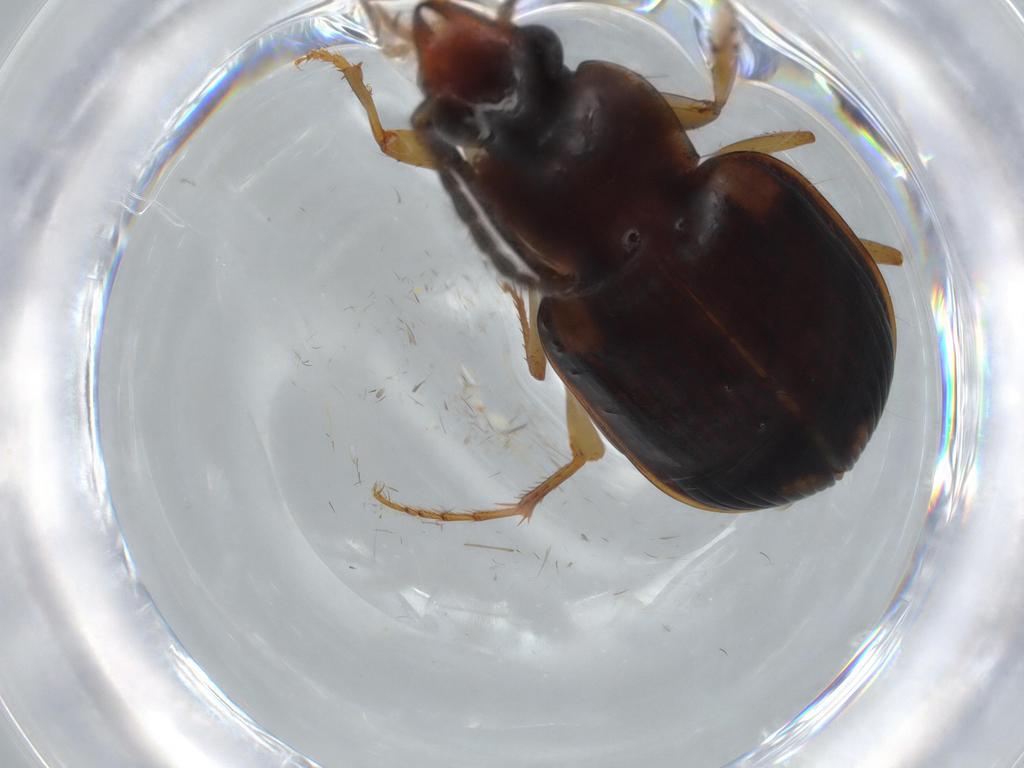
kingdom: Animalia
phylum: Arthropoda
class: Insecta
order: Coleoptera
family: Carabidae
